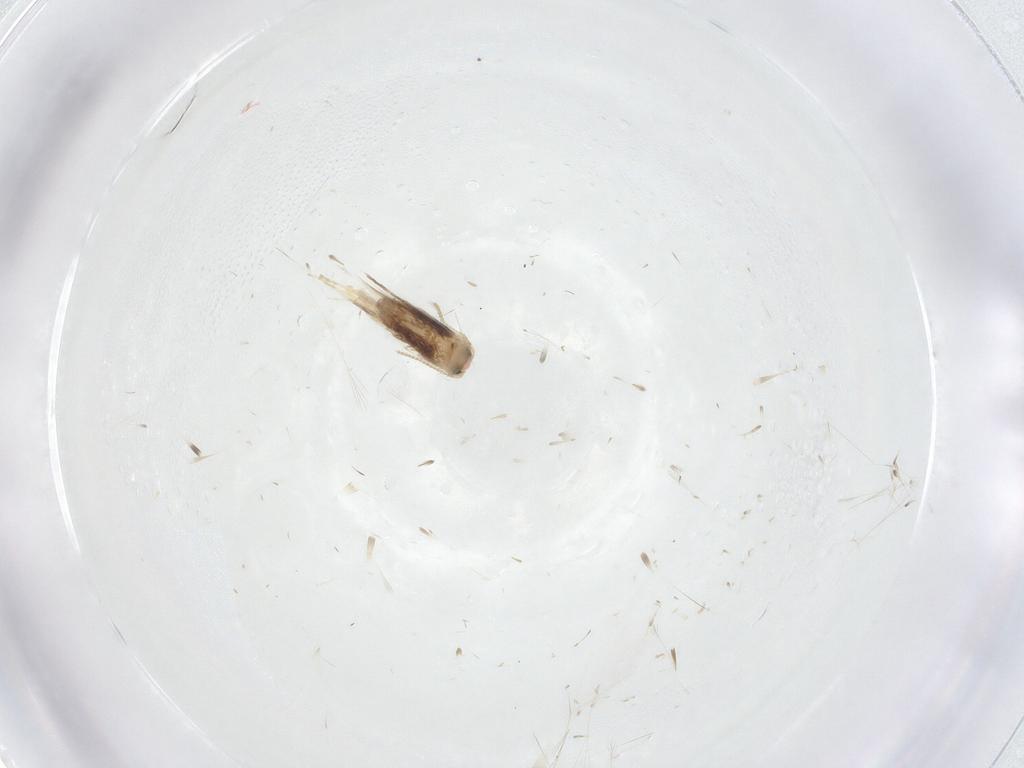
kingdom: Animalia
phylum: Arthropoda
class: Insecta
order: Lepidoptera
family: Nepticulidae
